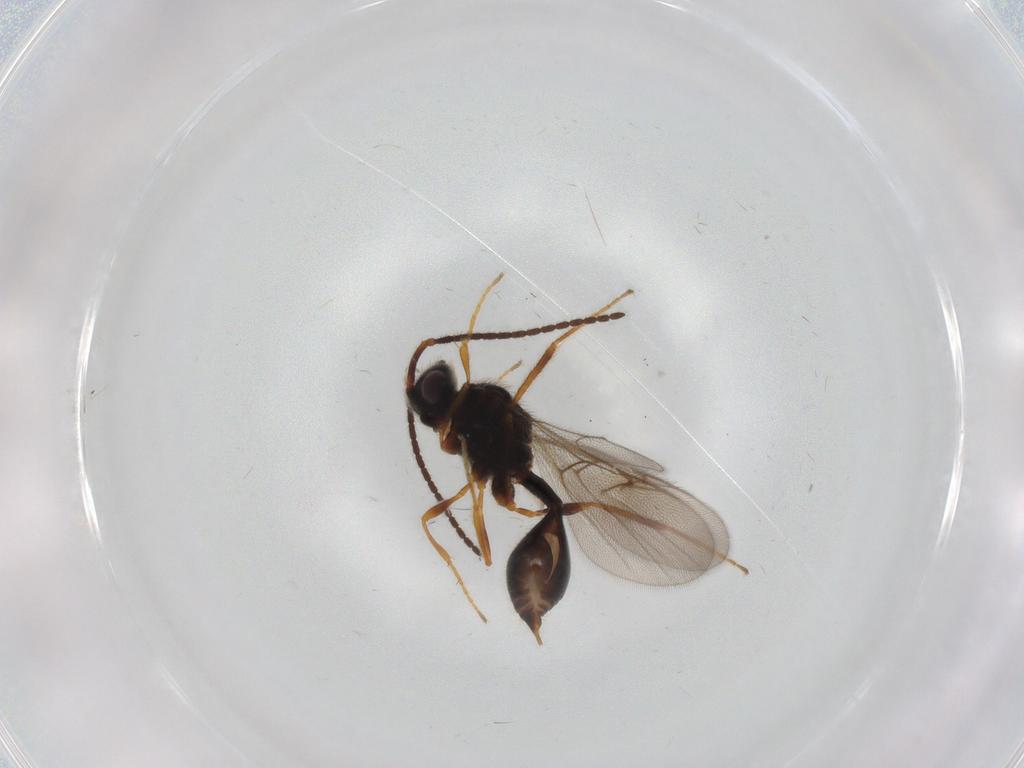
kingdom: Animalia
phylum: Arthropoda
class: Insecta
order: Hymenoptera
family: Diapriidae
